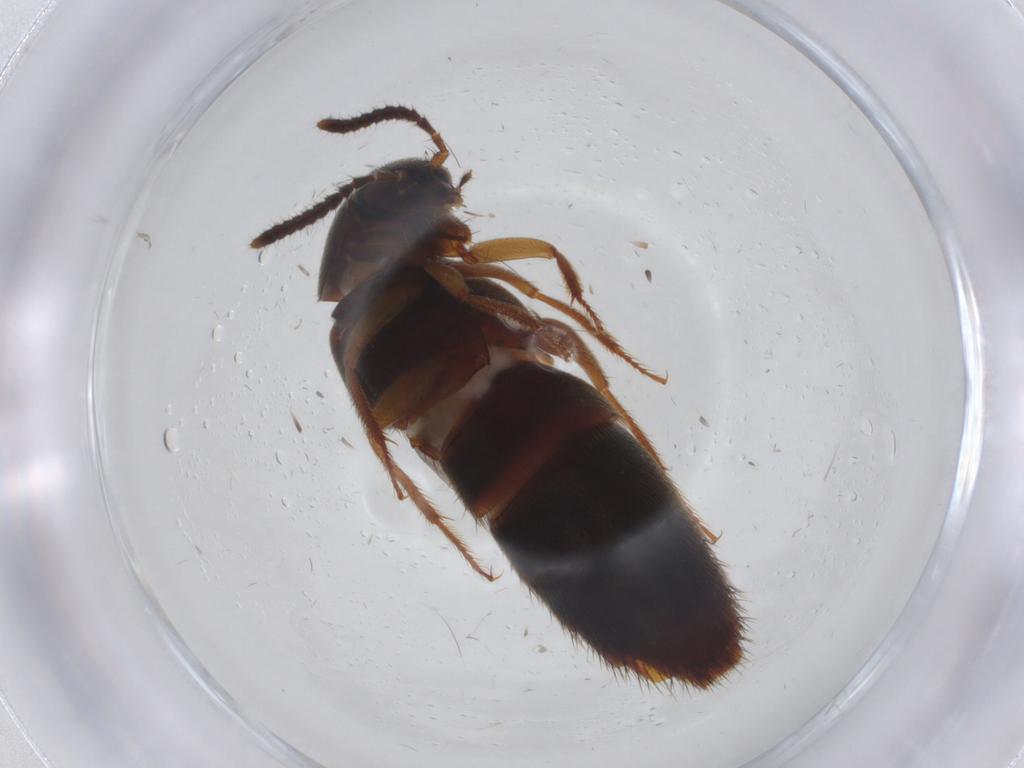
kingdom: Animalia
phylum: Arthropoda
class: Insecta
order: Coleoptera
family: Staphylinidae
